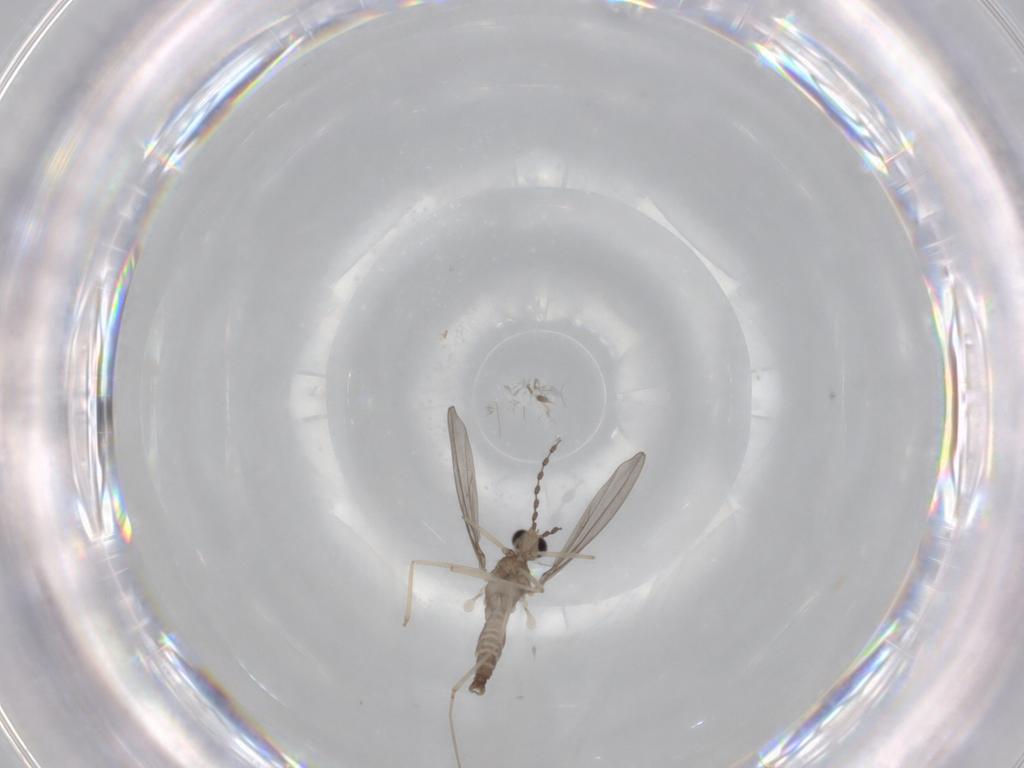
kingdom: Animalia
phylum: Arthropoda
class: Insecta
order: Diptera
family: Cecidomyiidae
